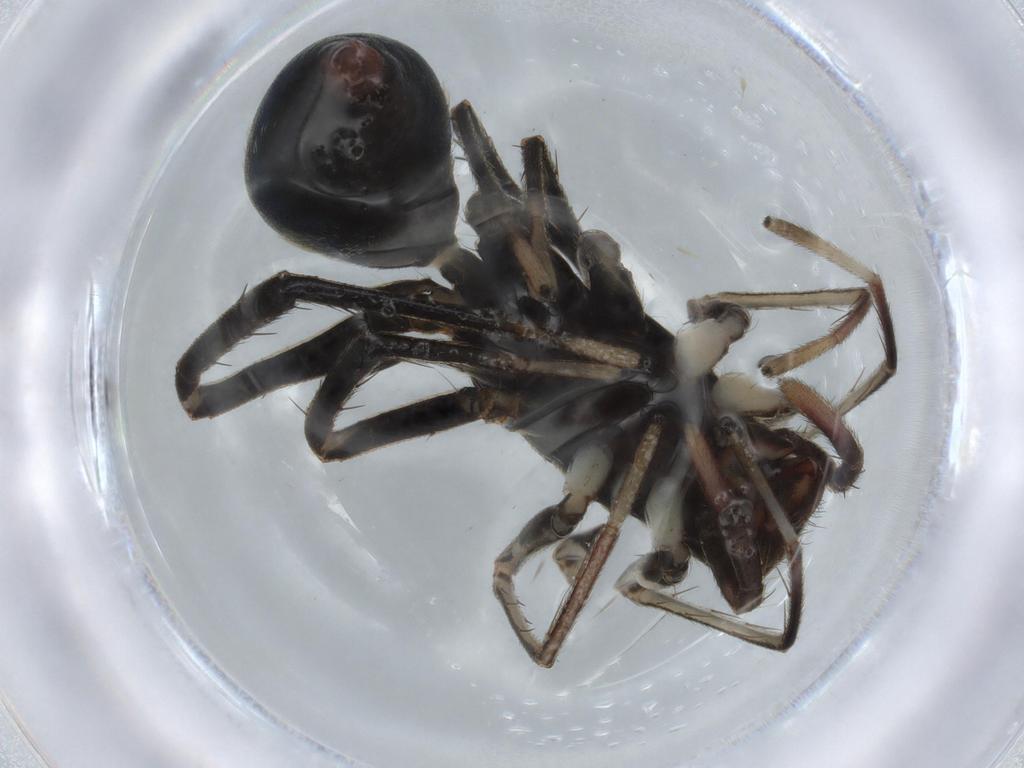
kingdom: Animalia
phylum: Arthropoda
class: Arachnida
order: Araneae
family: Corinnidae
